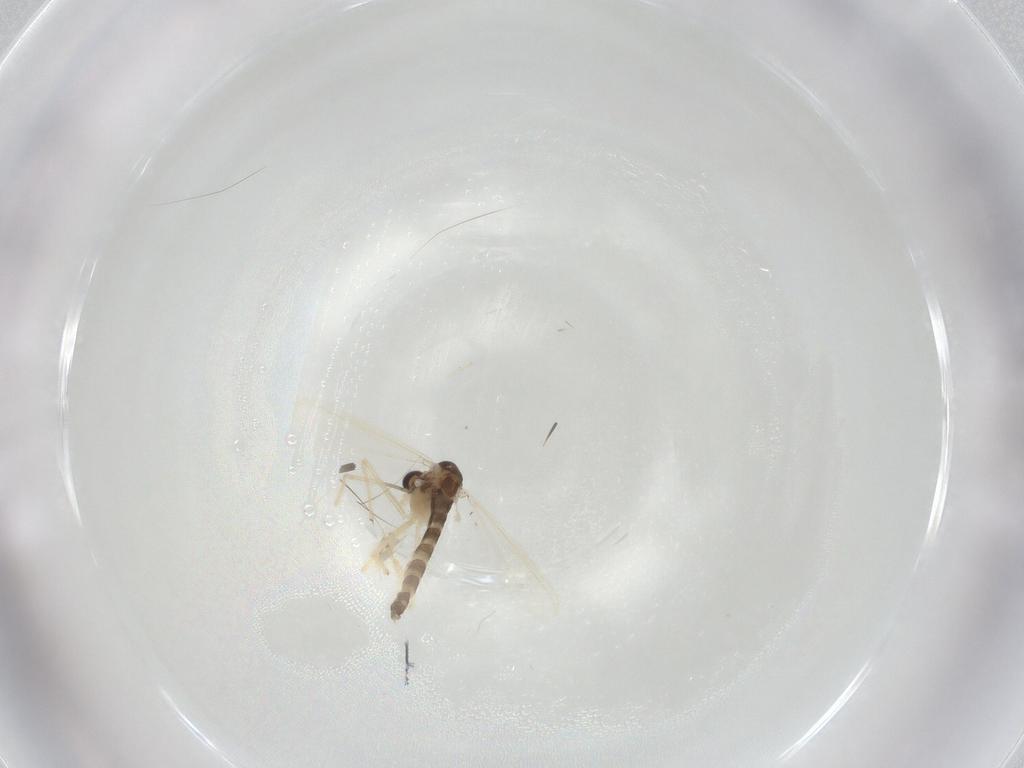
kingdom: Animalia
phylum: Arthropoda
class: Insecta
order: Diptera
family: Chironomidae
